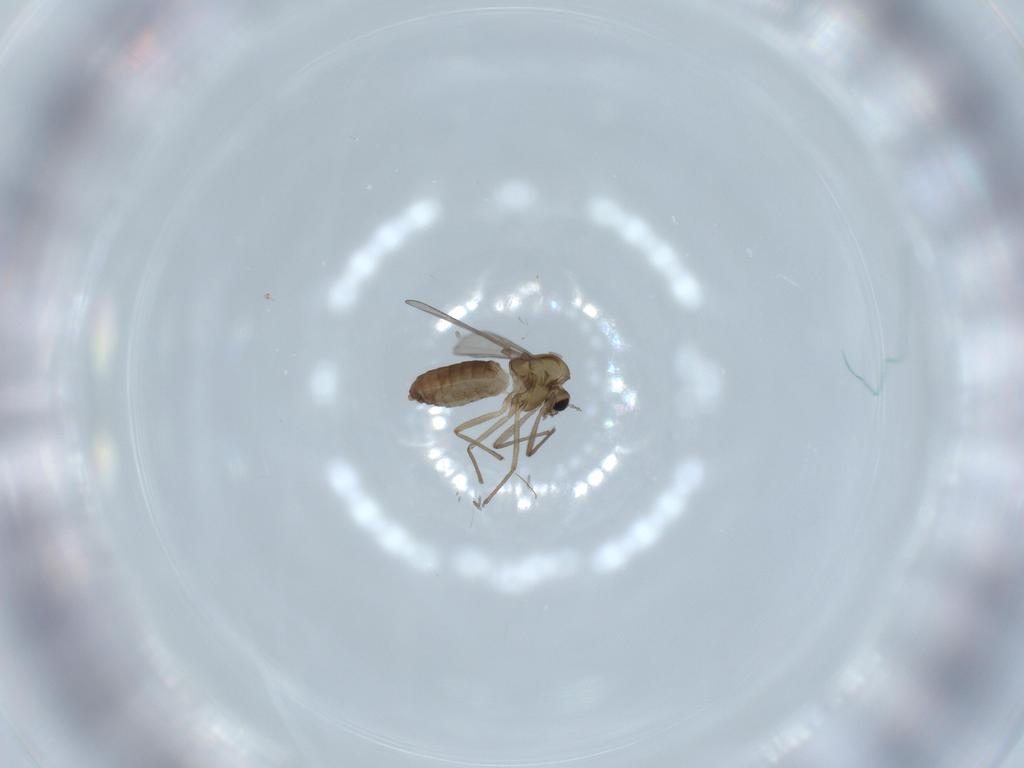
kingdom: Animalia
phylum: Arthropoda
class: Insecta
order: Diptera
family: Chironomidae
